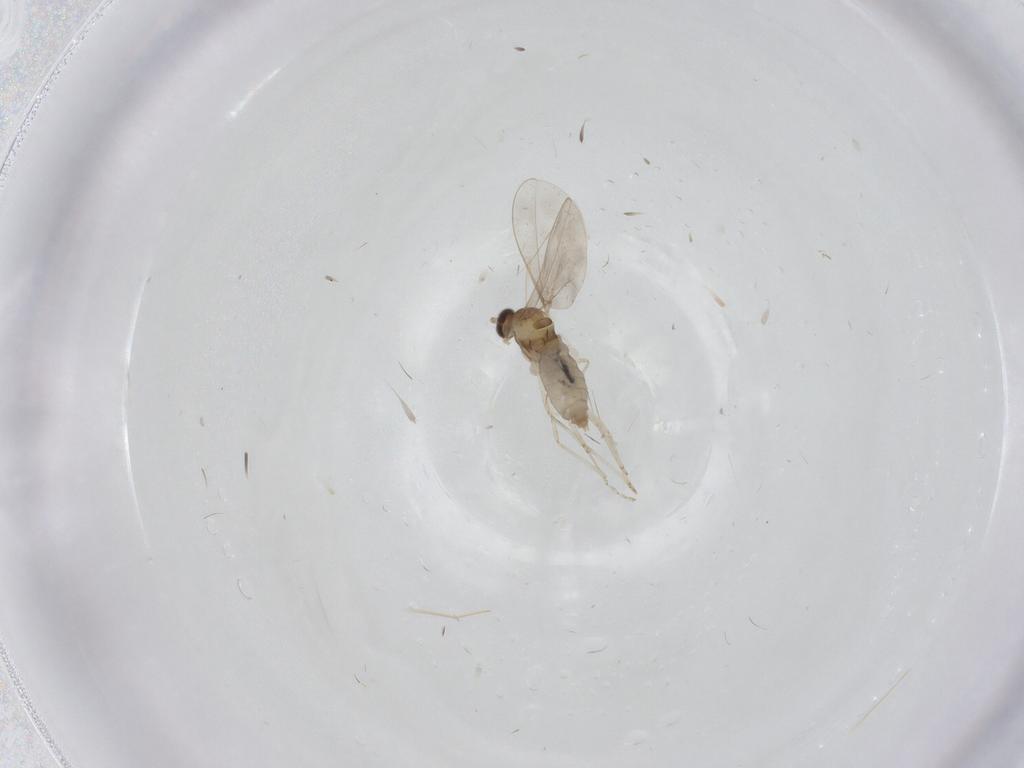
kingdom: Animalia
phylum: Arthropoda
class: Insecta
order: Diptera
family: Cecidomyiidae
